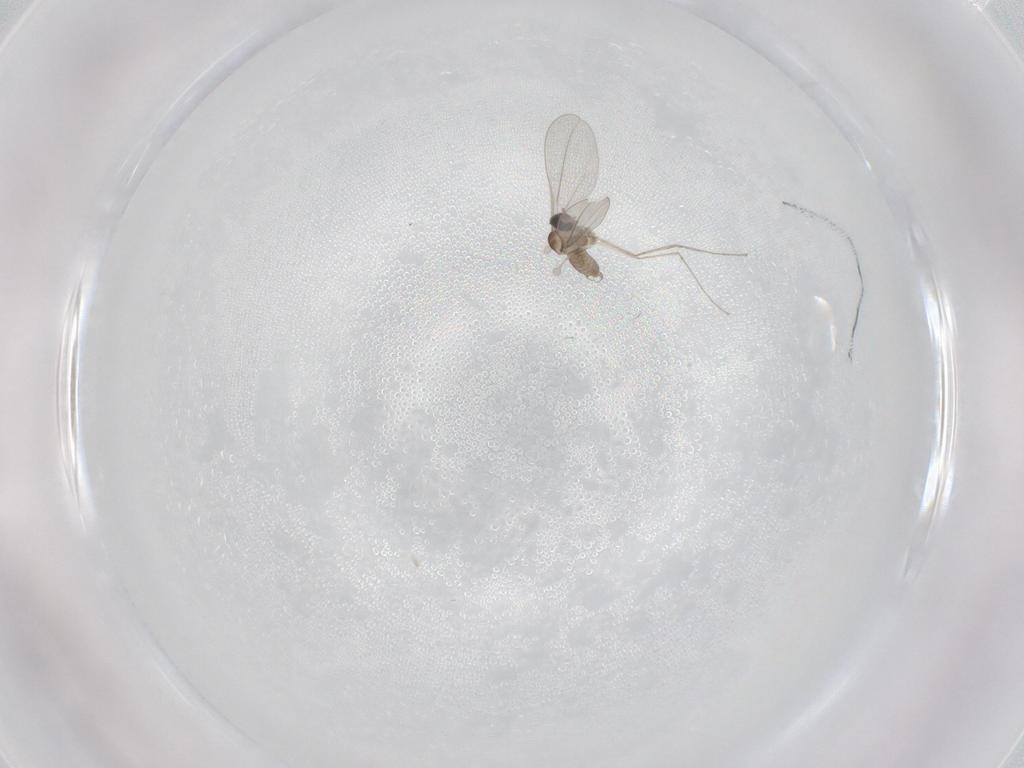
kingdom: Animalia
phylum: Arthropoda
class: Insecta
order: Diptera
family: Cecidomyiidae
